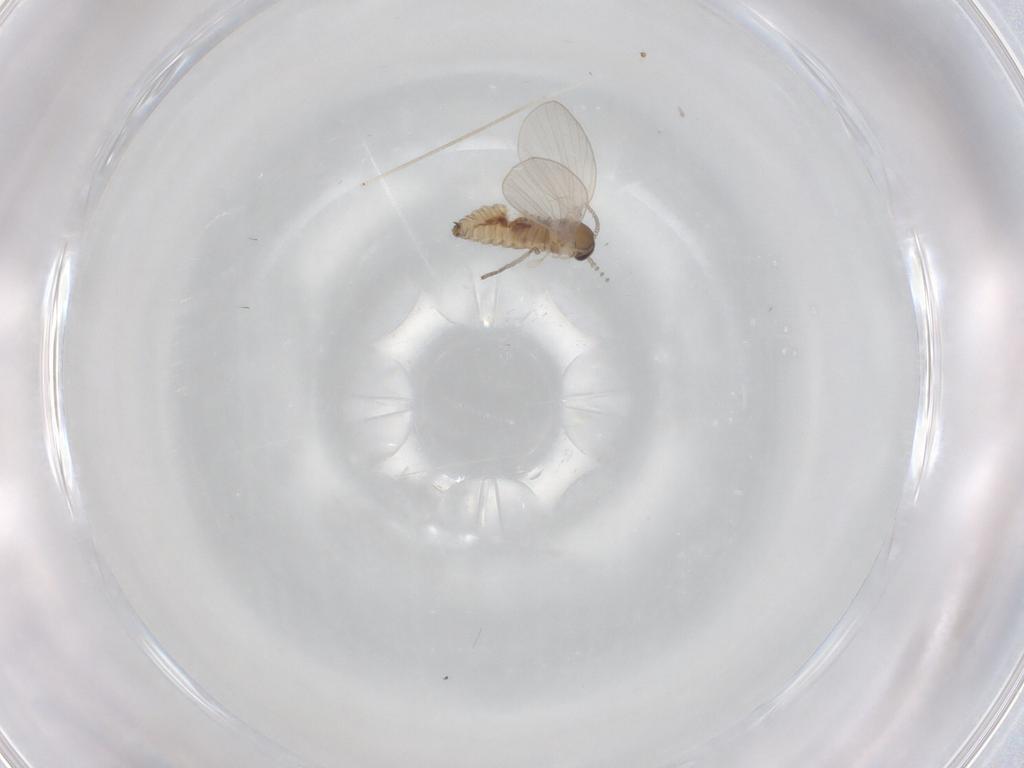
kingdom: Animalia
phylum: Arthropoda
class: Insecta
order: Diptera
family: Psychodidae
